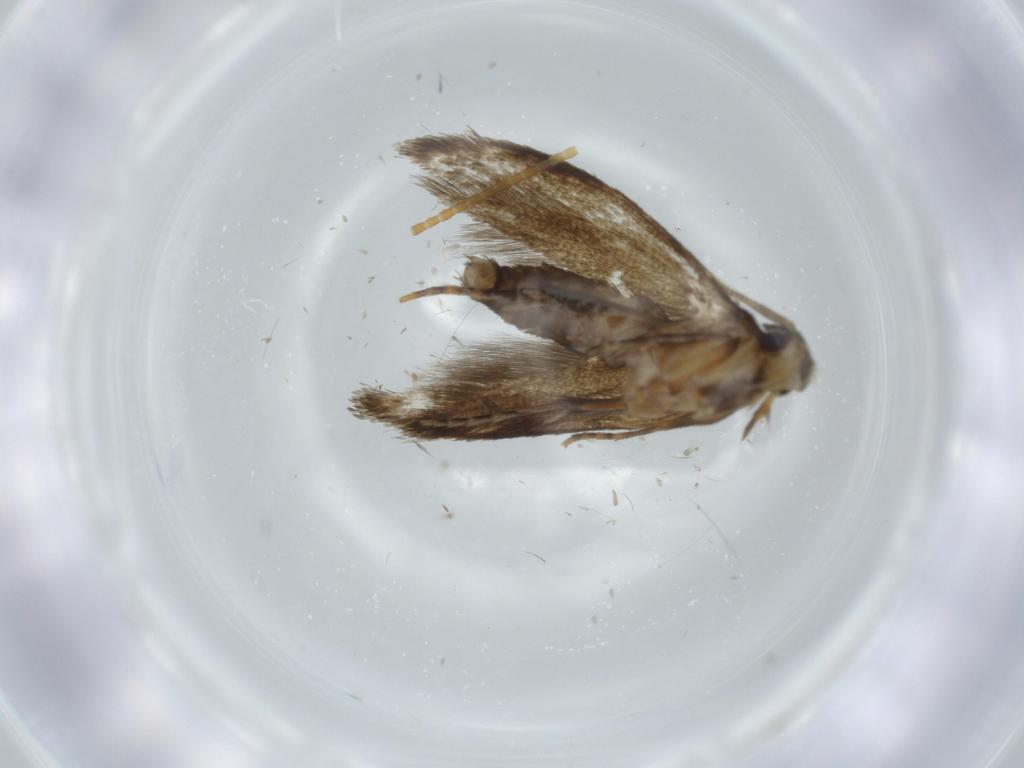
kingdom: Animalia
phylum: Arthropoda
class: Insecta
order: Lepidoptera
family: Tineidae
